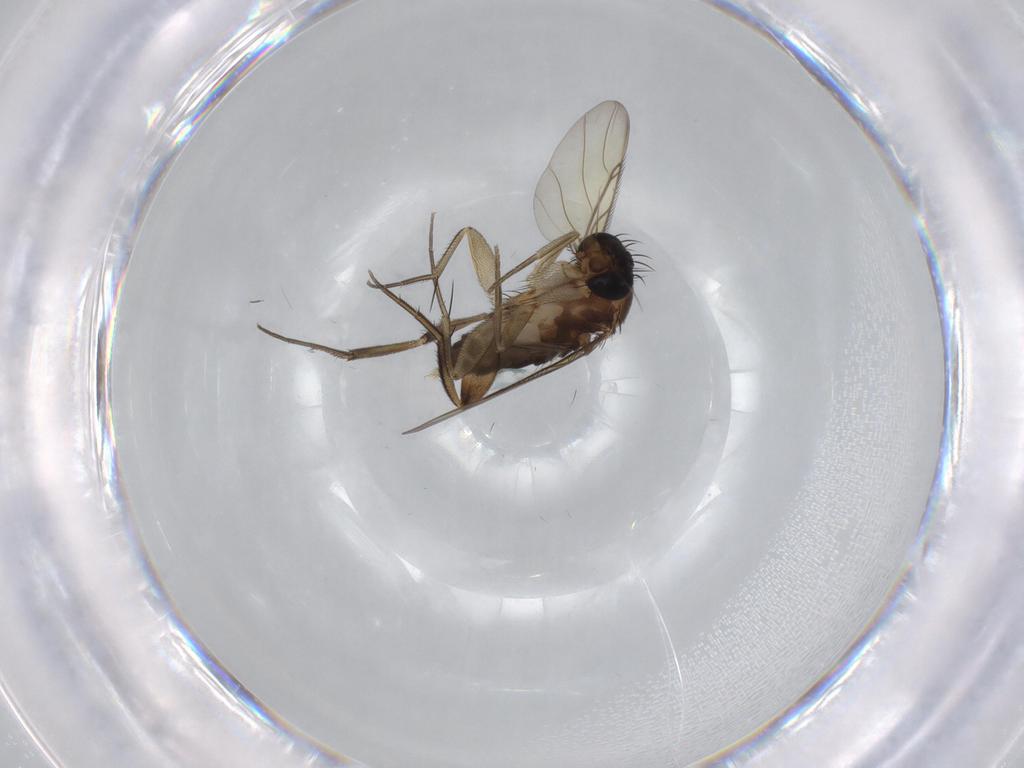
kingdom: Animalia
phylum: Arthropoda
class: Insecta
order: Diptera
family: Phoridae
